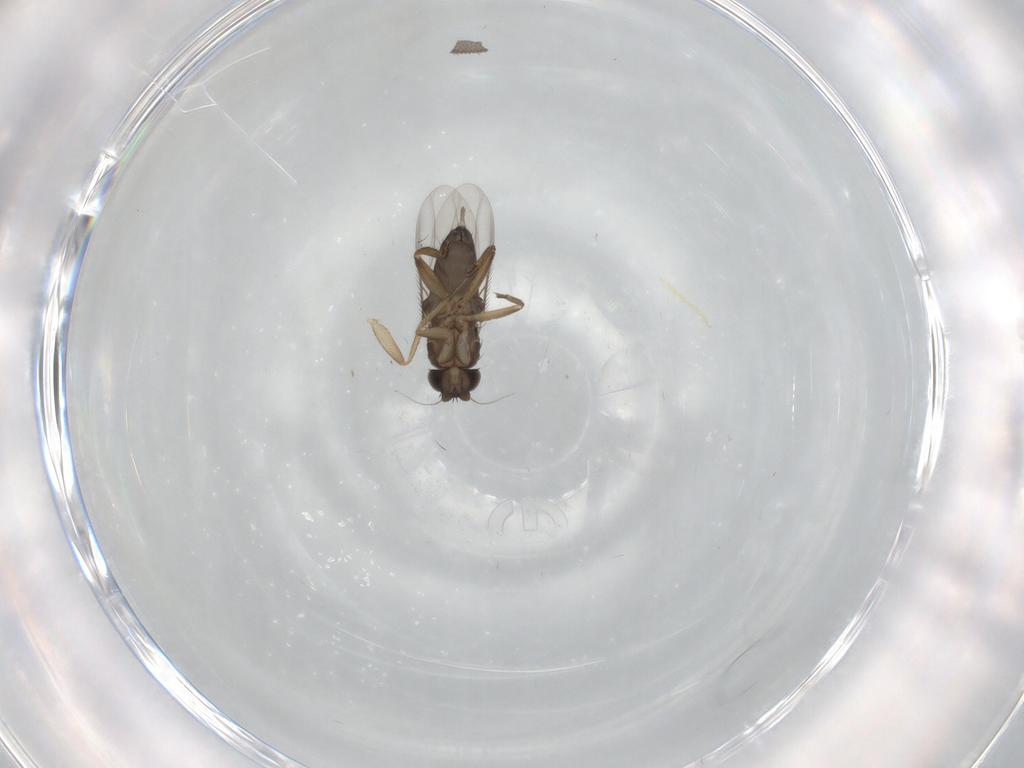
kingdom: Animalia
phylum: Arthropoda
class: Insecta
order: Diptera
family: Phoridae
